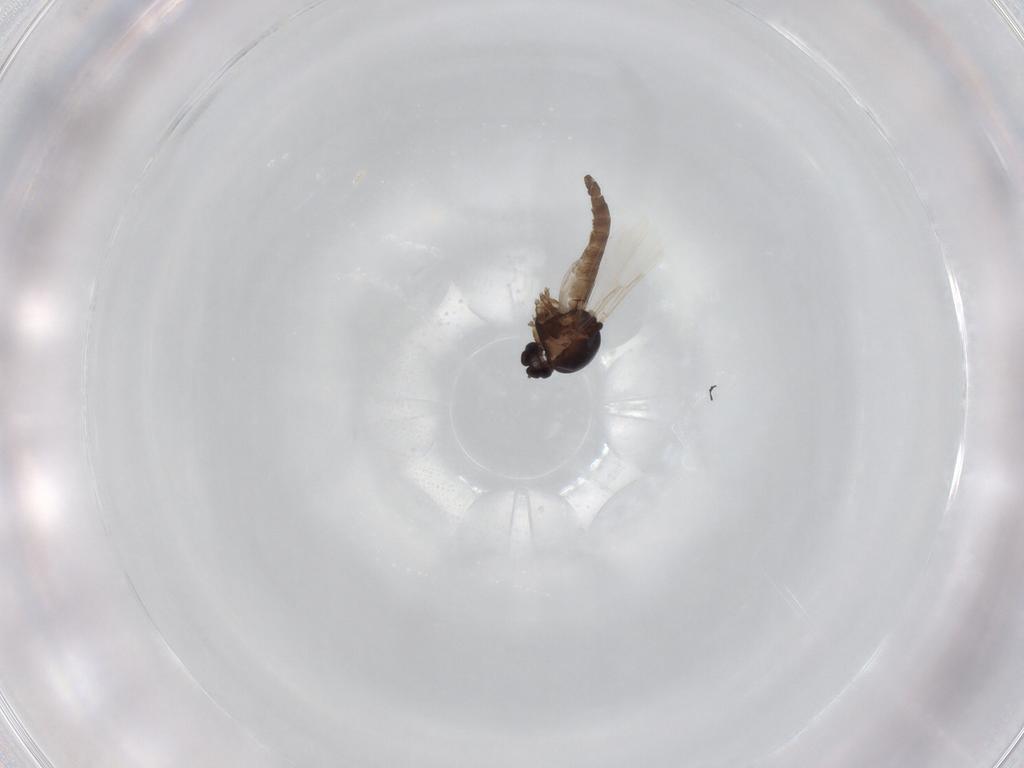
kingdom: Animalia
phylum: Arthropoda
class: Insecta
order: Diptera
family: Ceratopogonidae
